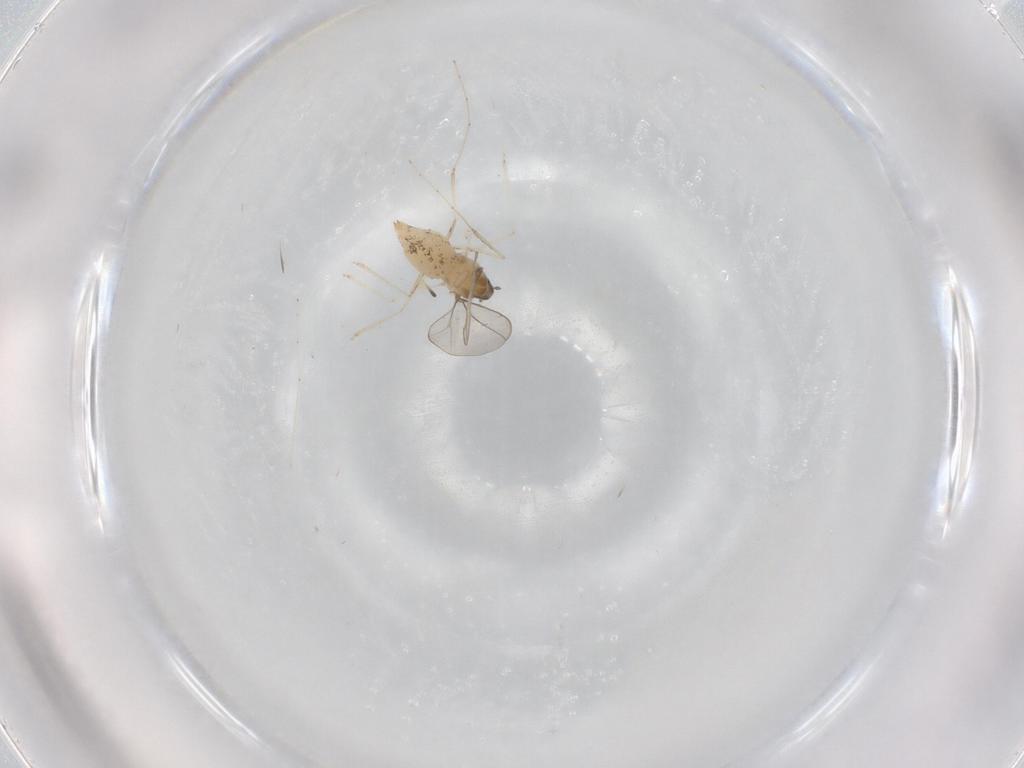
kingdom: Animalia
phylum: Arthropoda
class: Insecta
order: Diptera
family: Cecidomyiidae
